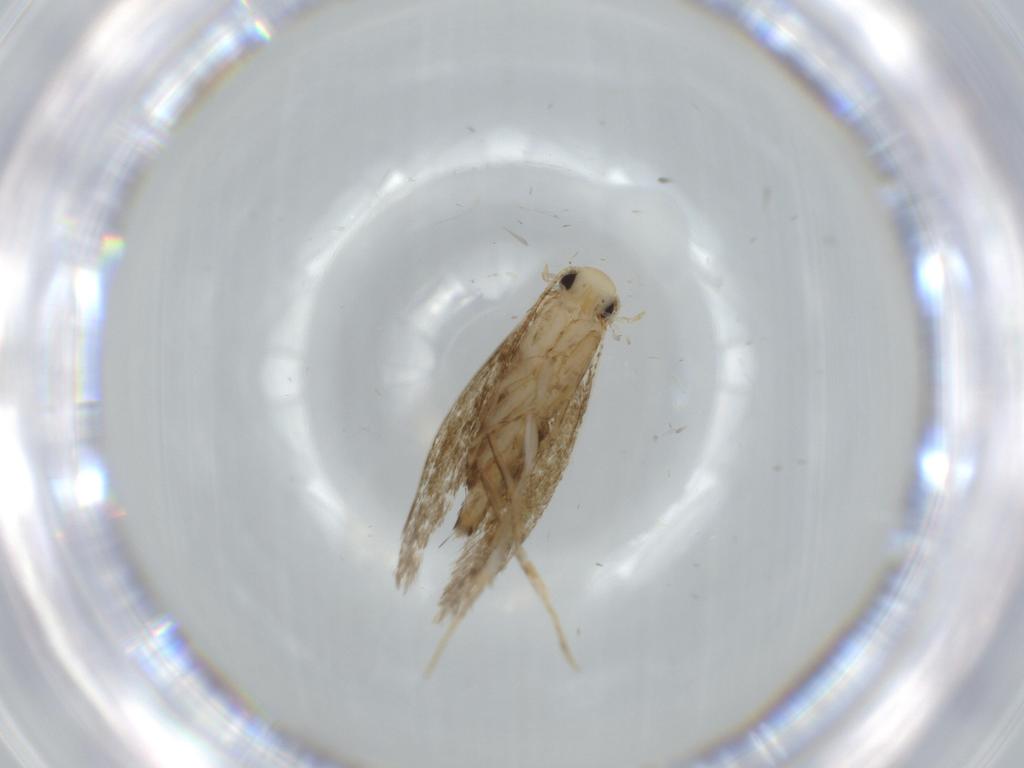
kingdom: Animalia
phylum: Arthropoda
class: Insecta
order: Lepidoptera
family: Tineidae
